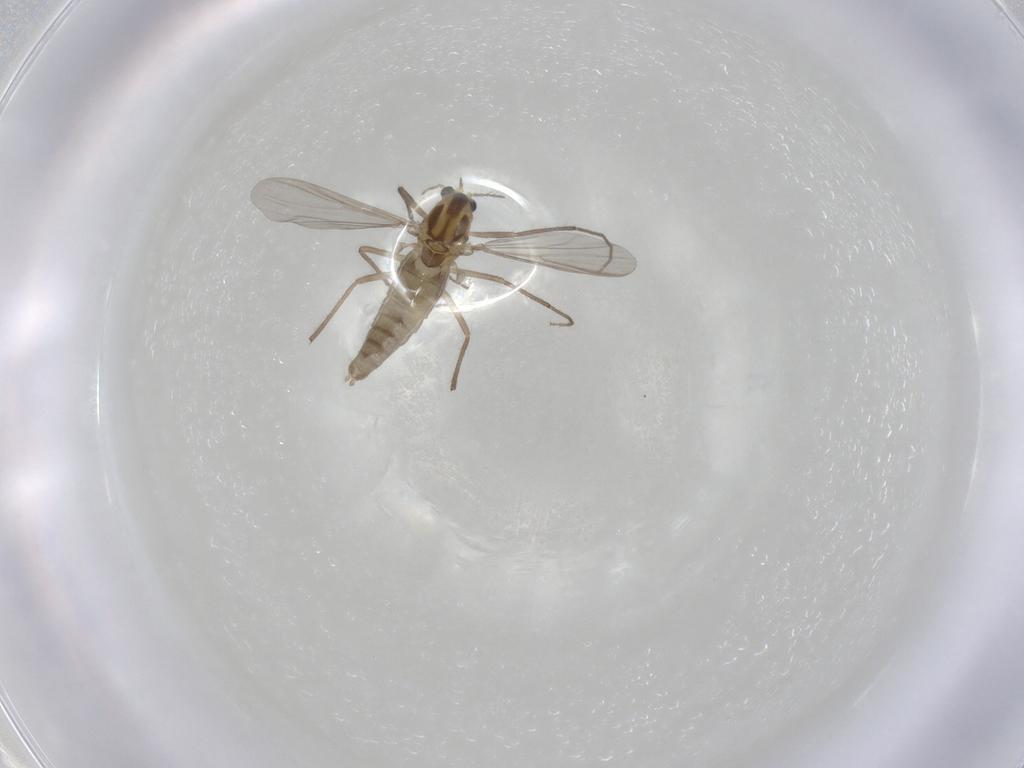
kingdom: Animalia
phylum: Arthropoda
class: Insecta
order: Diptera
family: Chironomidae
